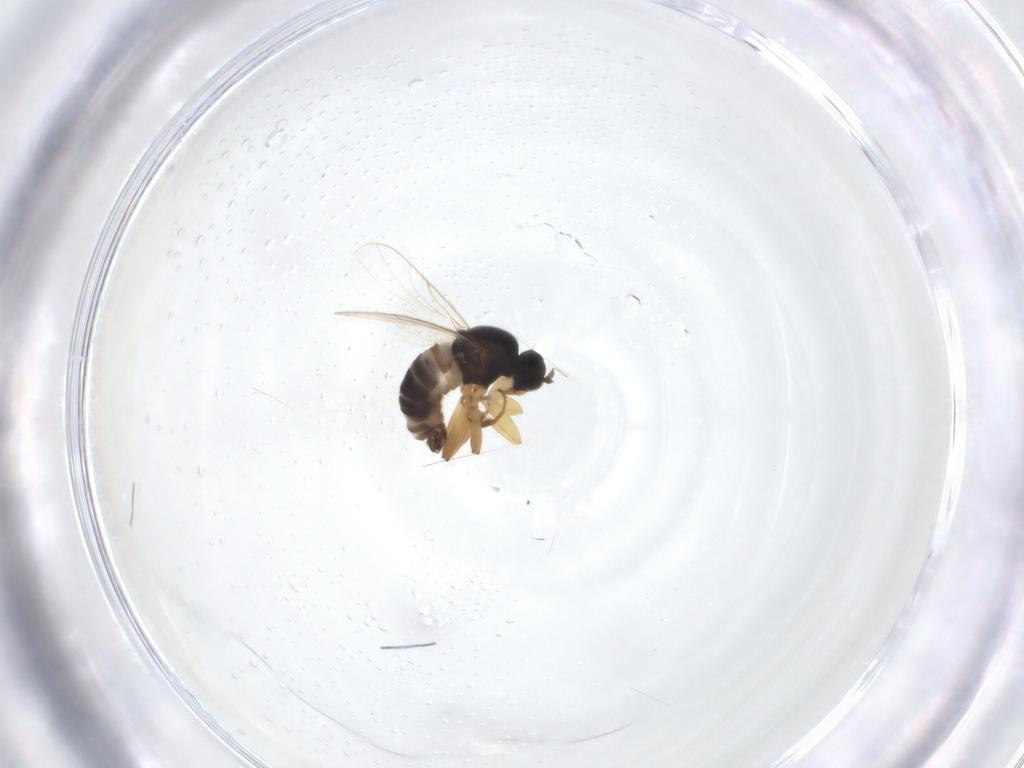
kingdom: Animalia
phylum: Arthropoda
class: Insecta
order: Diptera
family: Hybotidae
